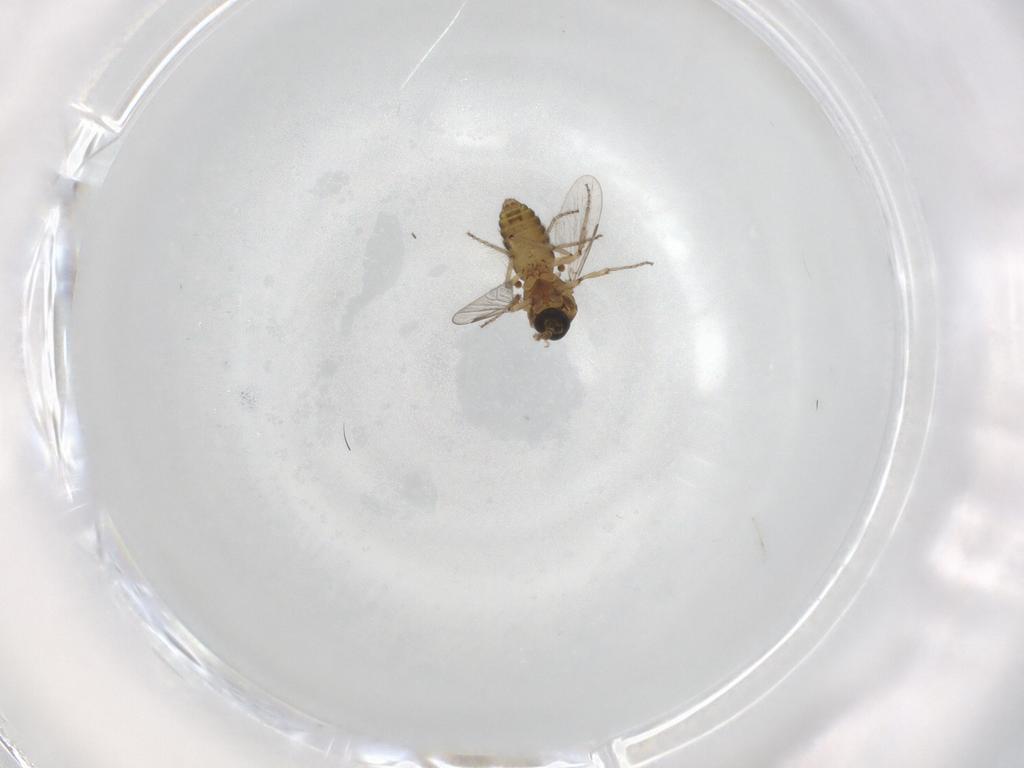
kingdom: Animalia
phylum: Arthropoda
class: Insecta
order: Diptera
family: Ceratopogonidae
